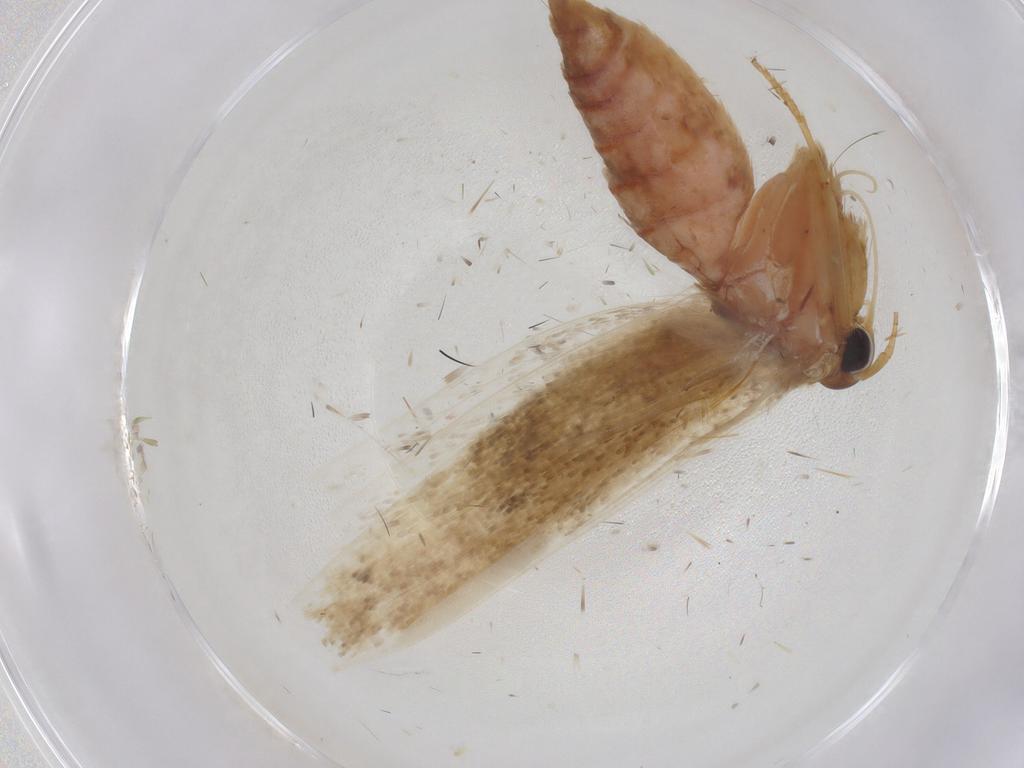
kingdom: Animalia
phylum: Arthropoda
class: Insecta
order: Lepidoptera
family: Blastobasidae
